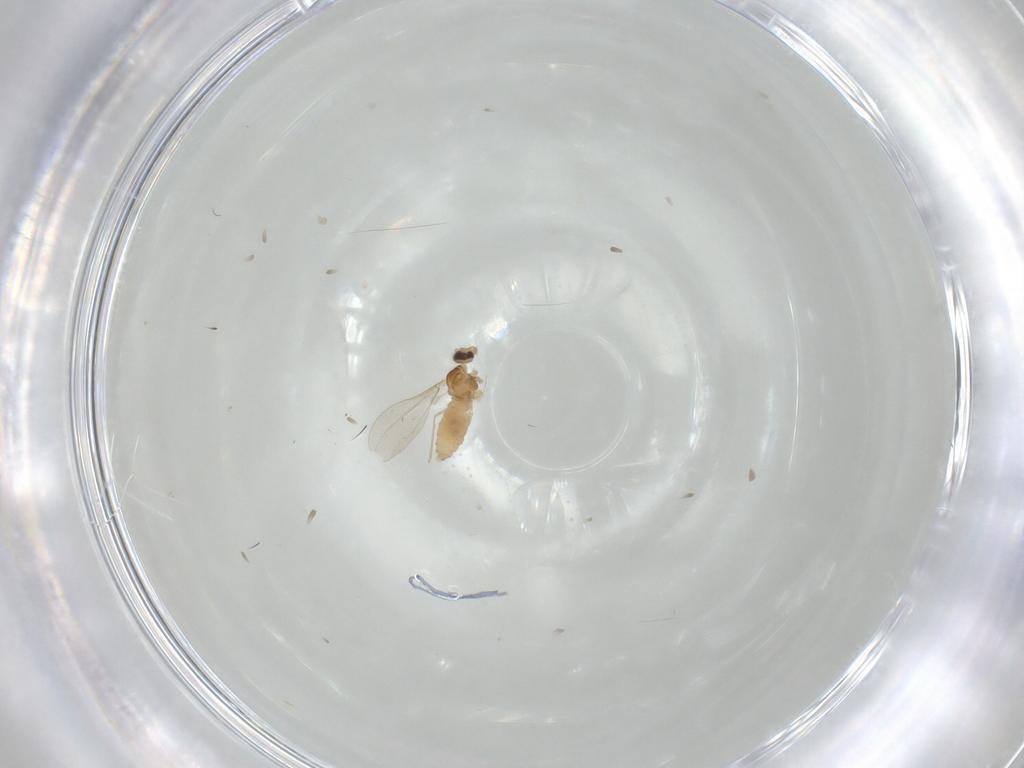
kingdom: Animalia
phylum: Arthropoda
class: Insecta
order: Diptera
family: Cecidomyiidae
